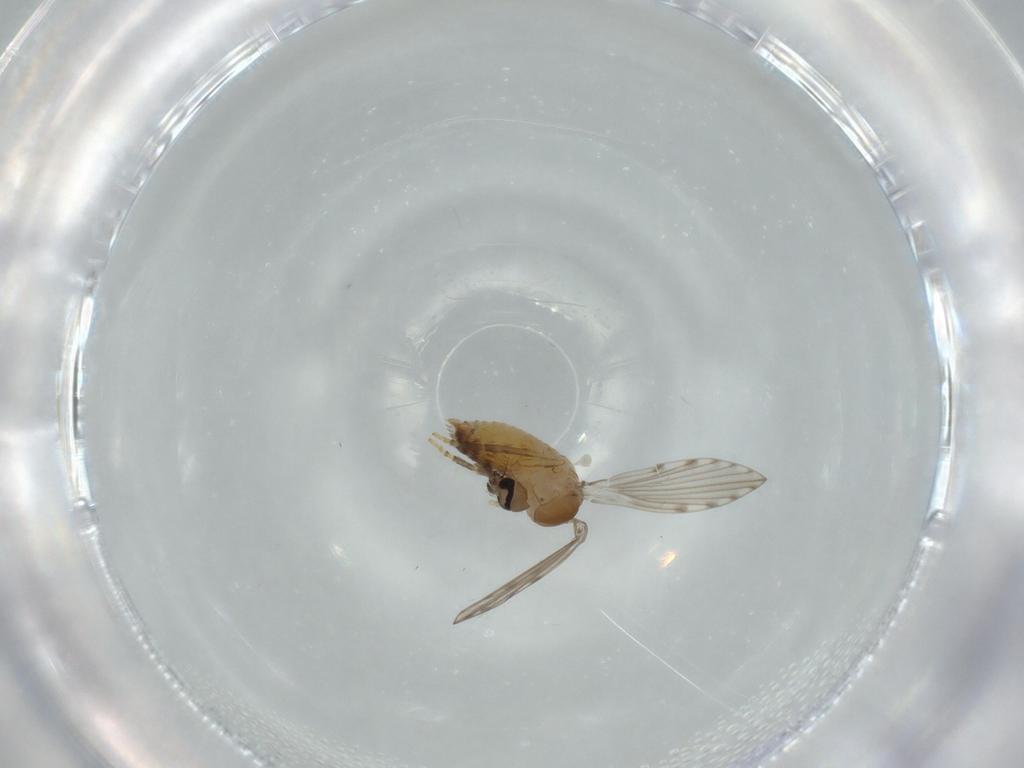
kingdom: Animalia
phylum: Arthropoda
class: Insecta
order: Diptera
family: Psychodidae
